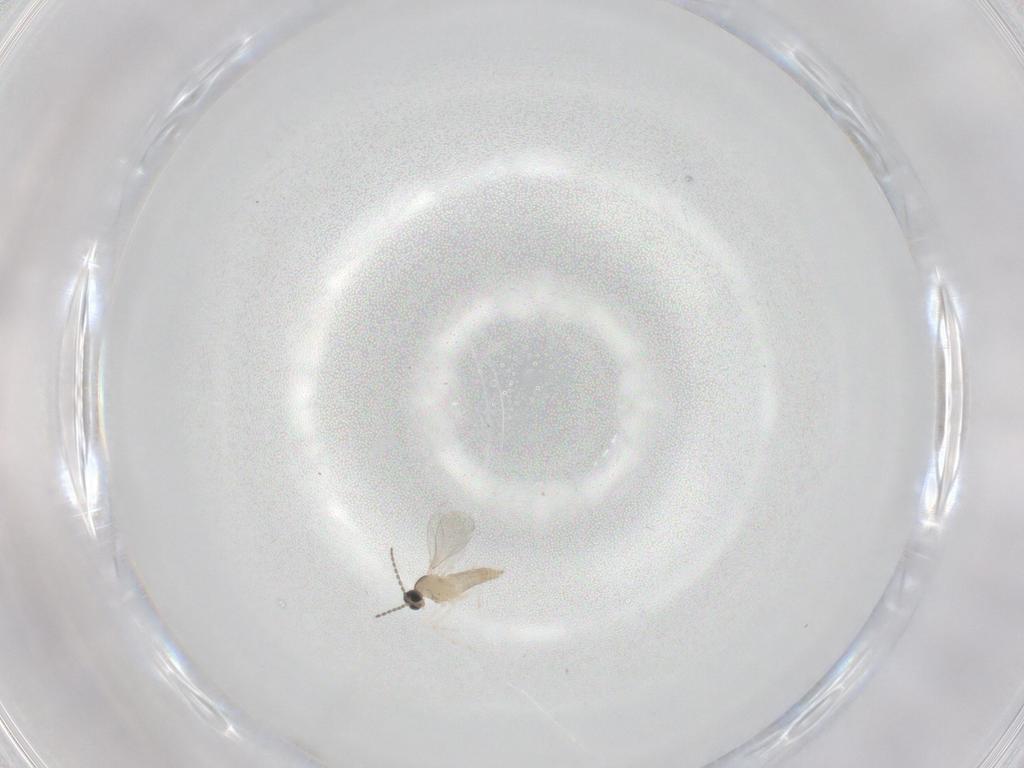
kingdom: Animalia
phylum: Arthropoda
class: Insecta
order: Diptera
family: Cecidomyiidae
